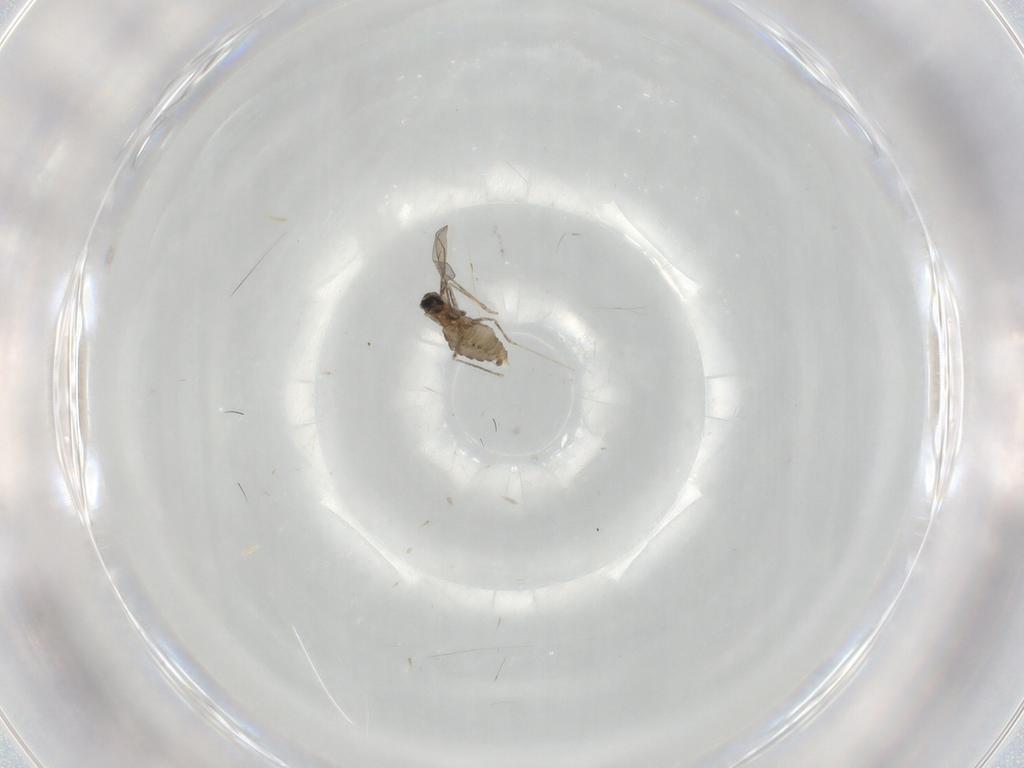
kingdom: Animalia
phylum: Arthropoda
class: Insecta
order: Diptera
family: Cecidomyiidae
